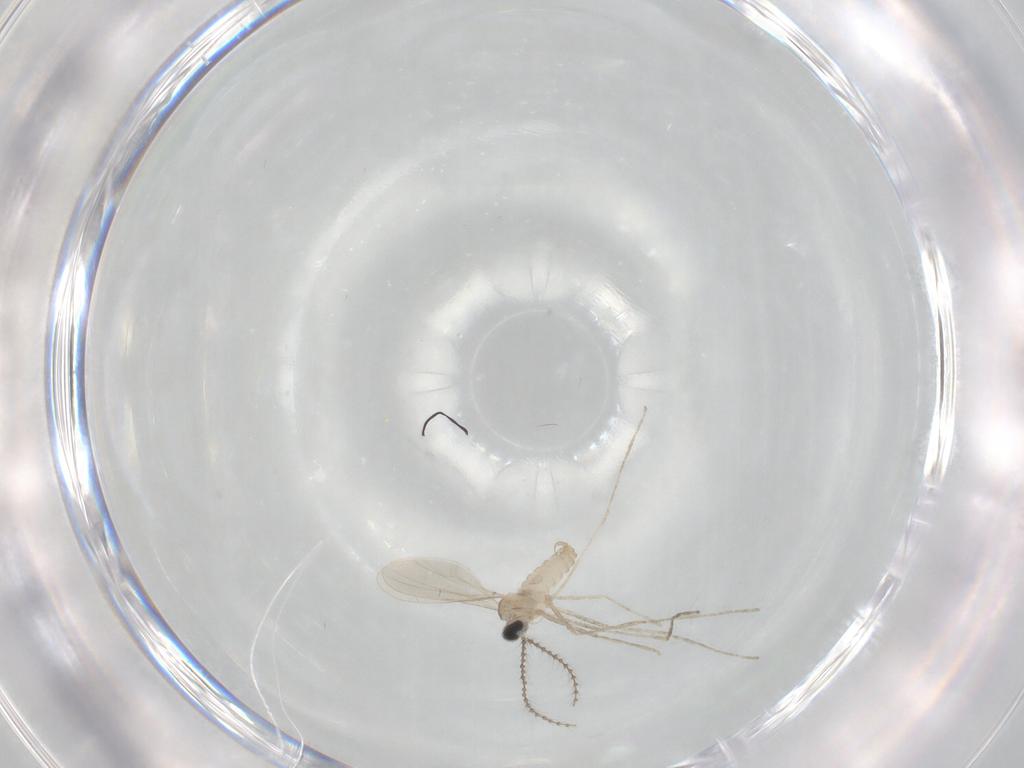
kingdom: Animalia
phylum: Arthropoda
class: Insecta
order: Diptera
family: Cecidomyiidae
